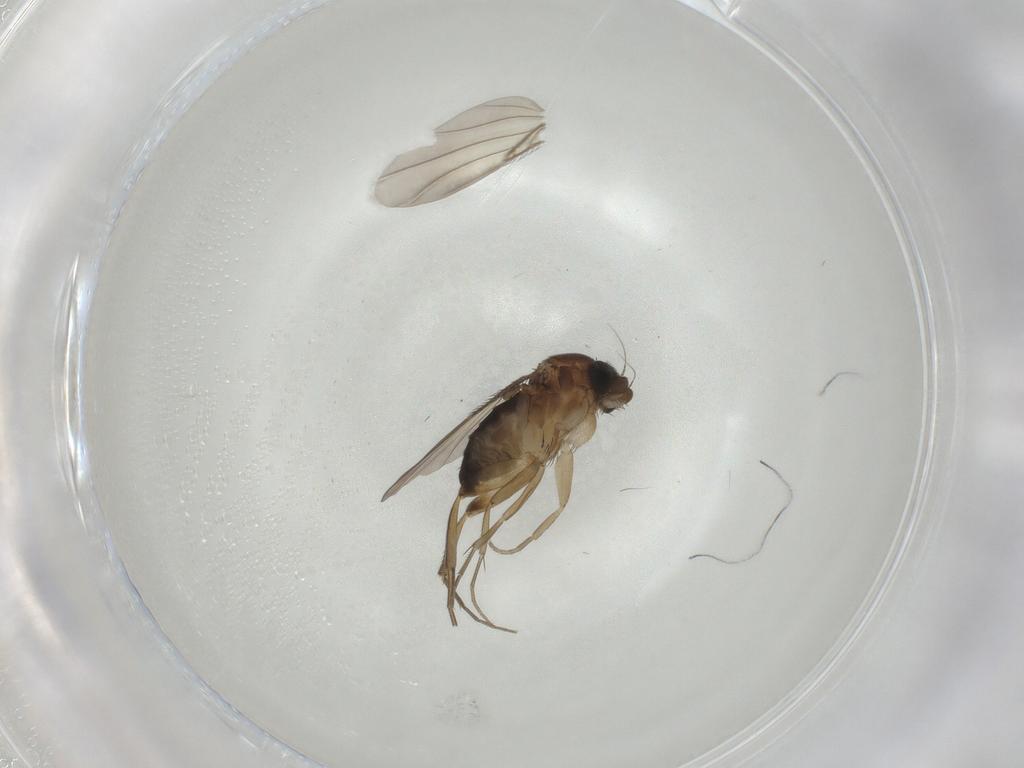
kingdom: Animalia
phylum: Arthropoda
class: Insecta
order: Diptera
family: Phoridae
